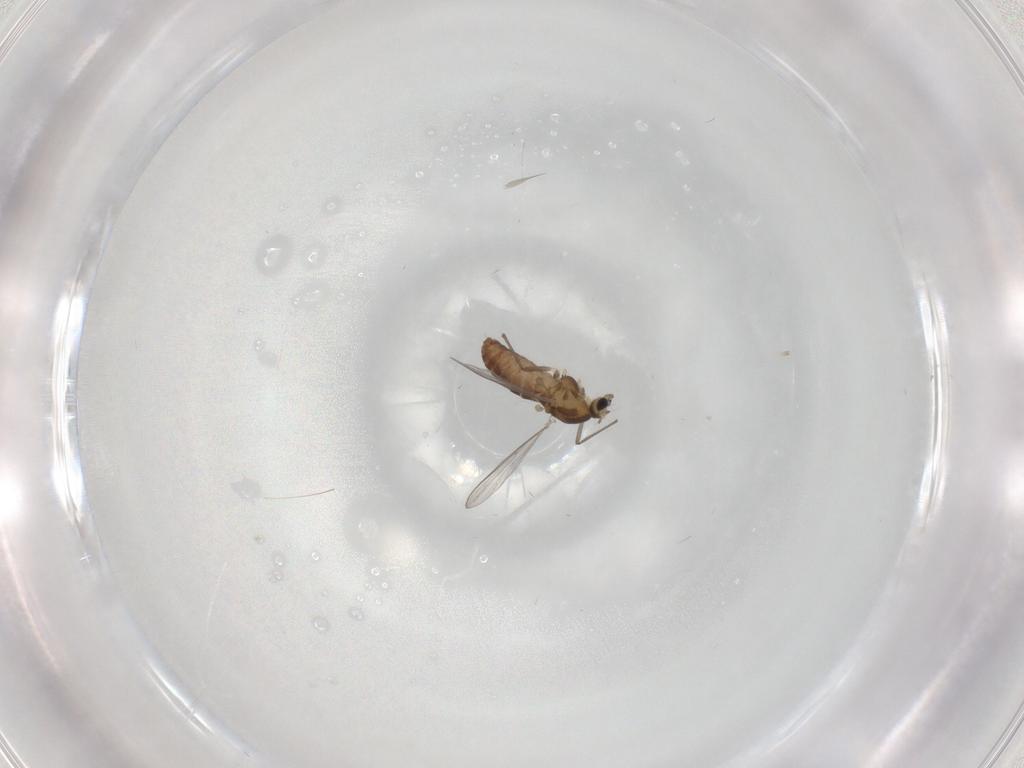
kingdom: Animalia
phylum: Arthropoda
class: Insecta
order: Diptera
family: Chironomidae
